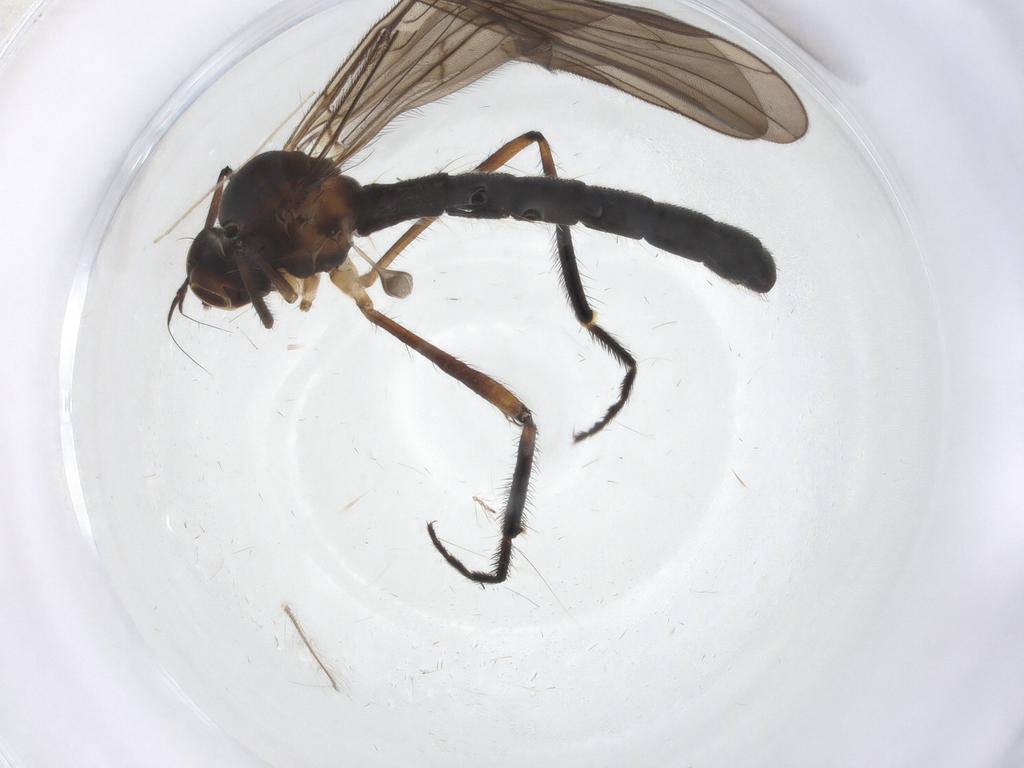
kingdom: Animalia
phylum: Arthropoda
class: Insecta
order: Diptera
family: Hybotidae
